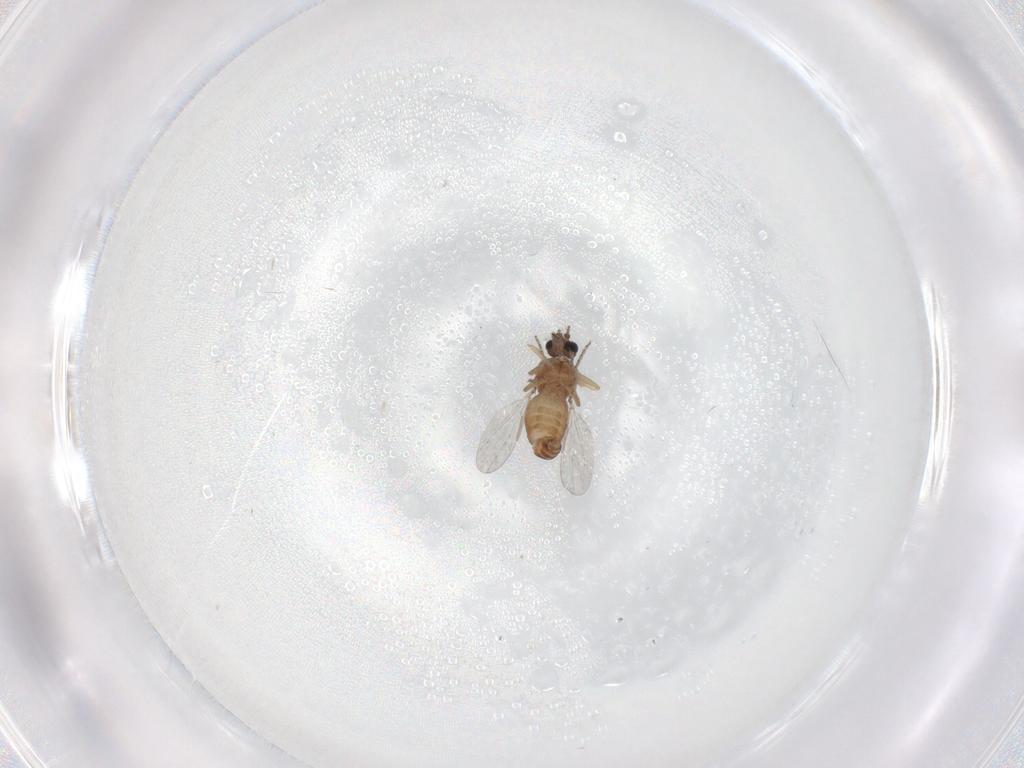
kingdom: Animalia
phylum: Arthropoda
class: Insecta
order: Diptera
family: Ceratopogonidae
